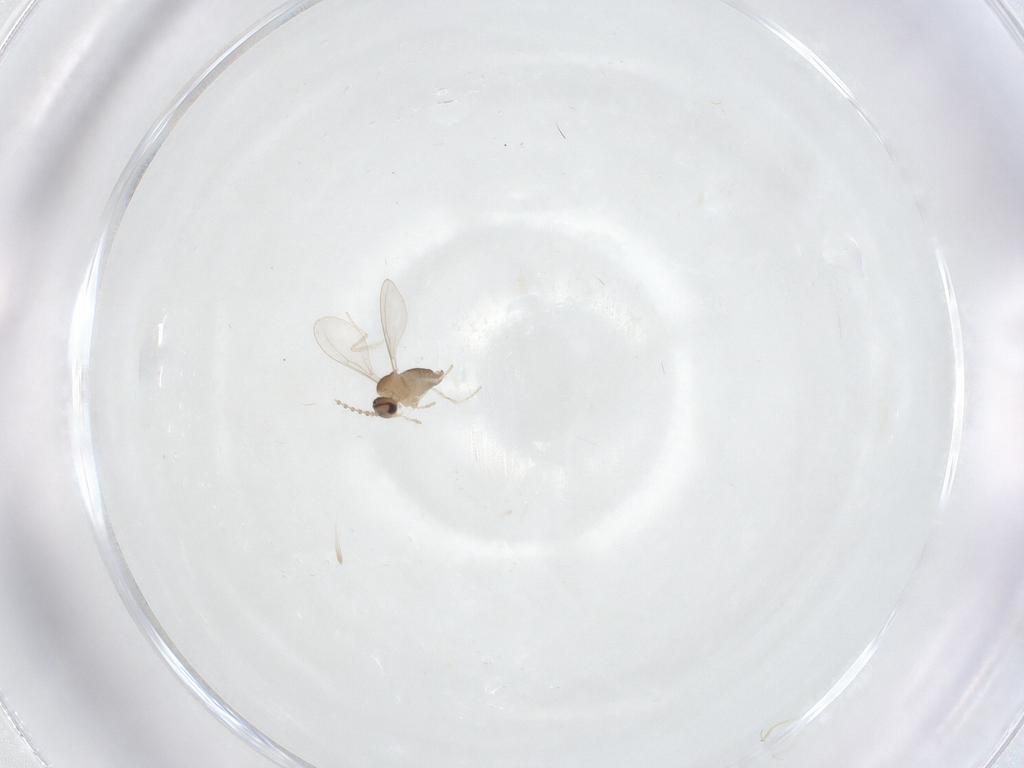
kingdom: Animalia
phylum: Arthropoda
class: Insecta
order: Diptera
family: Cecidomyiidae
